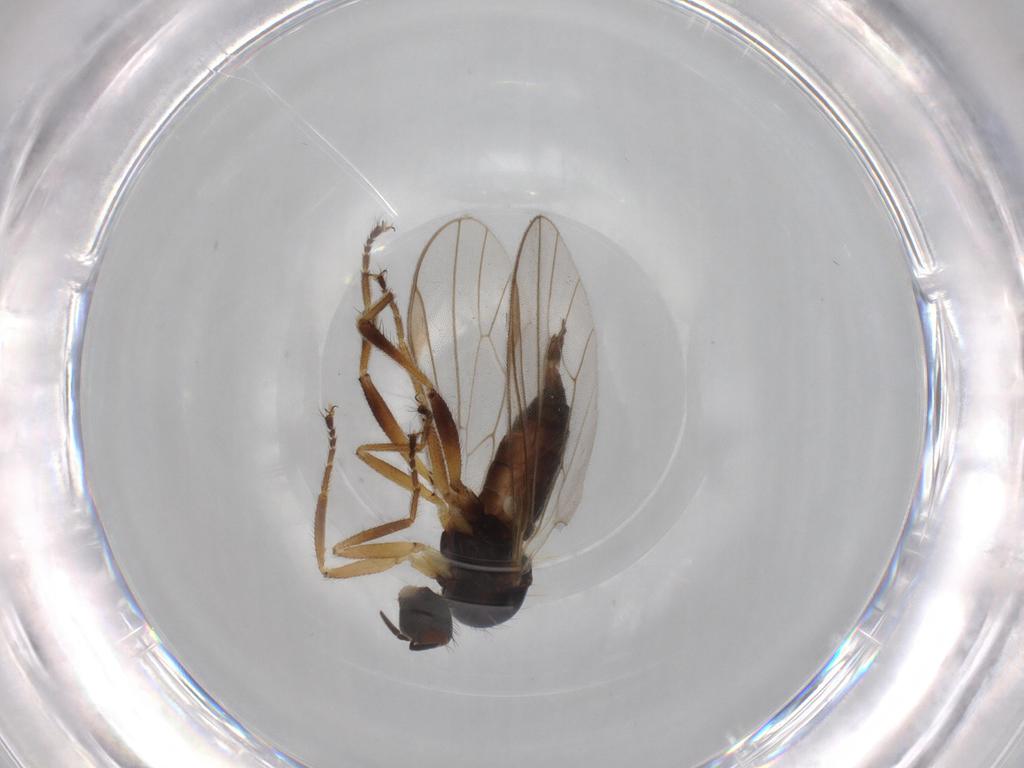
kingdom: Animalia
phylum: Arthropoda
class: Insecta
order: Diptera
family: Hybotidae
